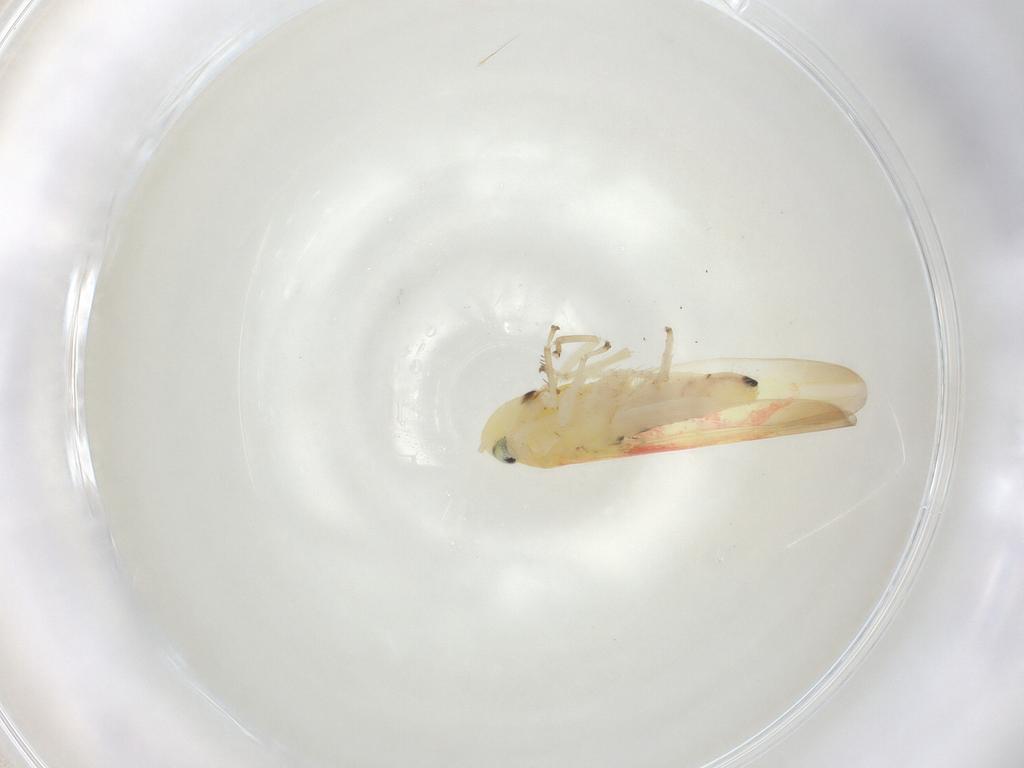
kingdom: Animalia
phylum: Arthropoda
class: Insecta
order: Hemiptera
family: Cicadellidae
